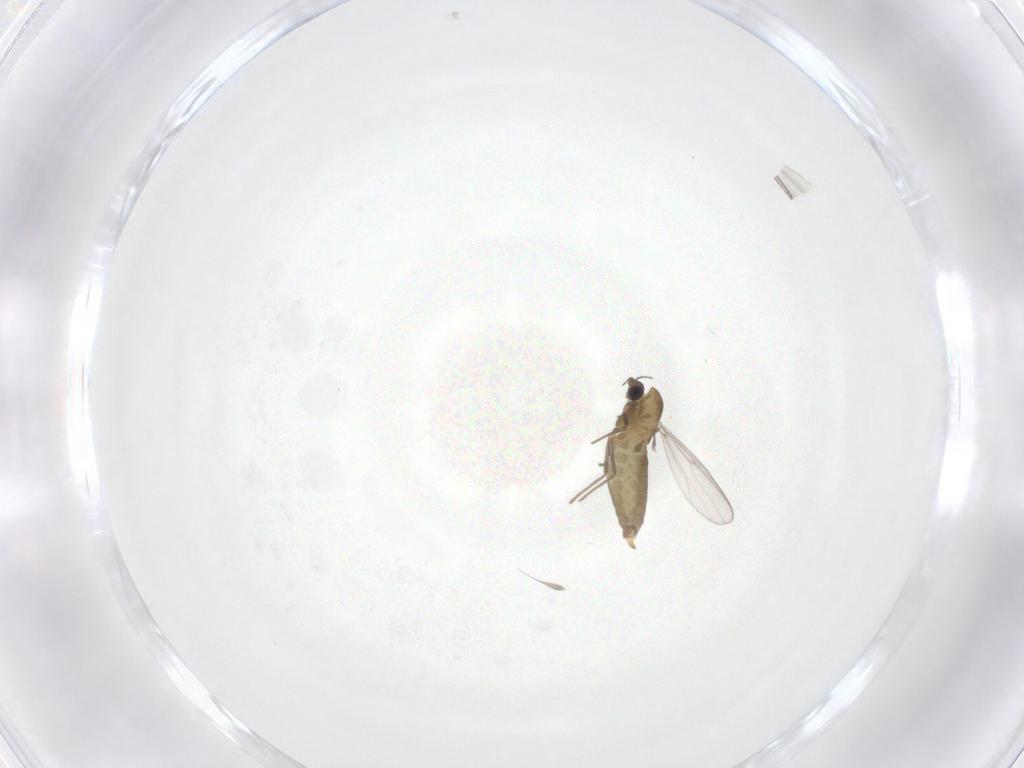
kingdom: Animalia
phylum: Arthropoda
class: Insecta
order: Diptera
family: Chironomidae
